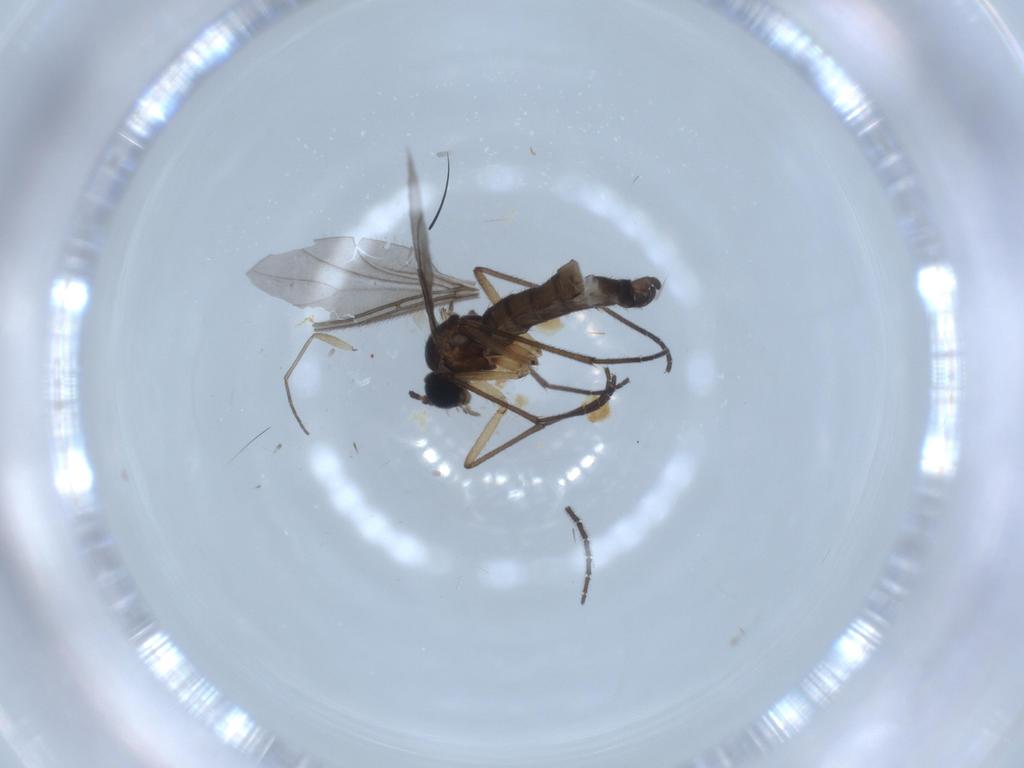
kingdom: Animalia
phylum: Arthropoda
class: Insecta
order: Diptera
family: Sciaridae
